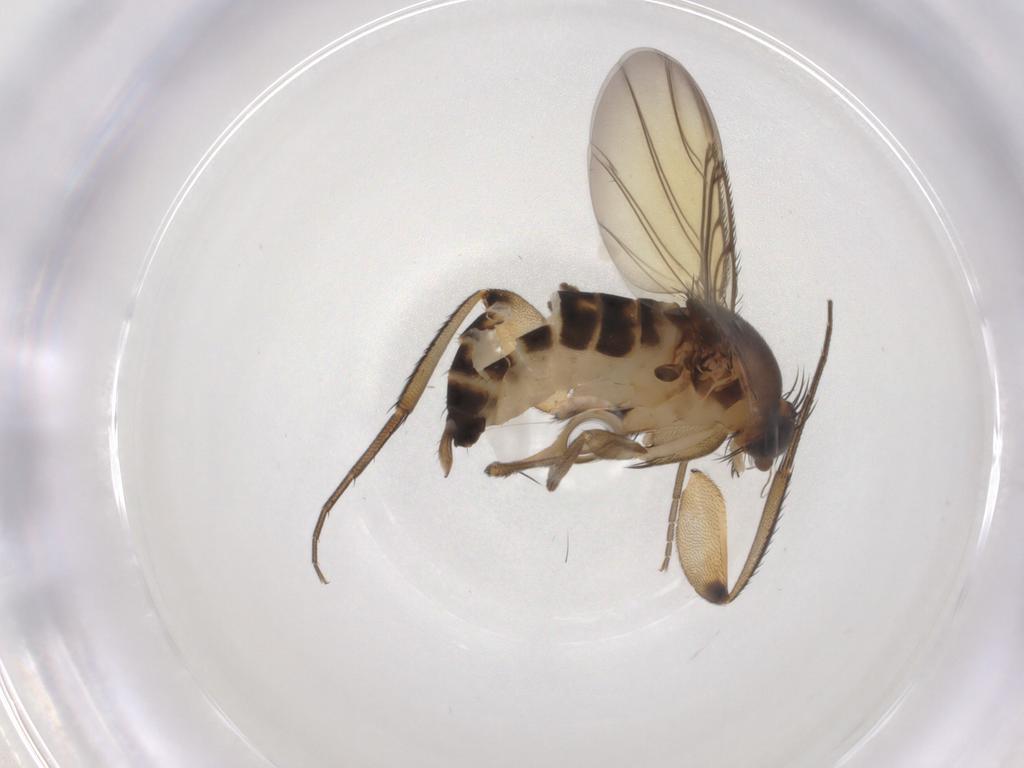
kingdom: Animalia
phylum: Arthropoda
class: Insecta
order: Diptera
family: Phoridae
